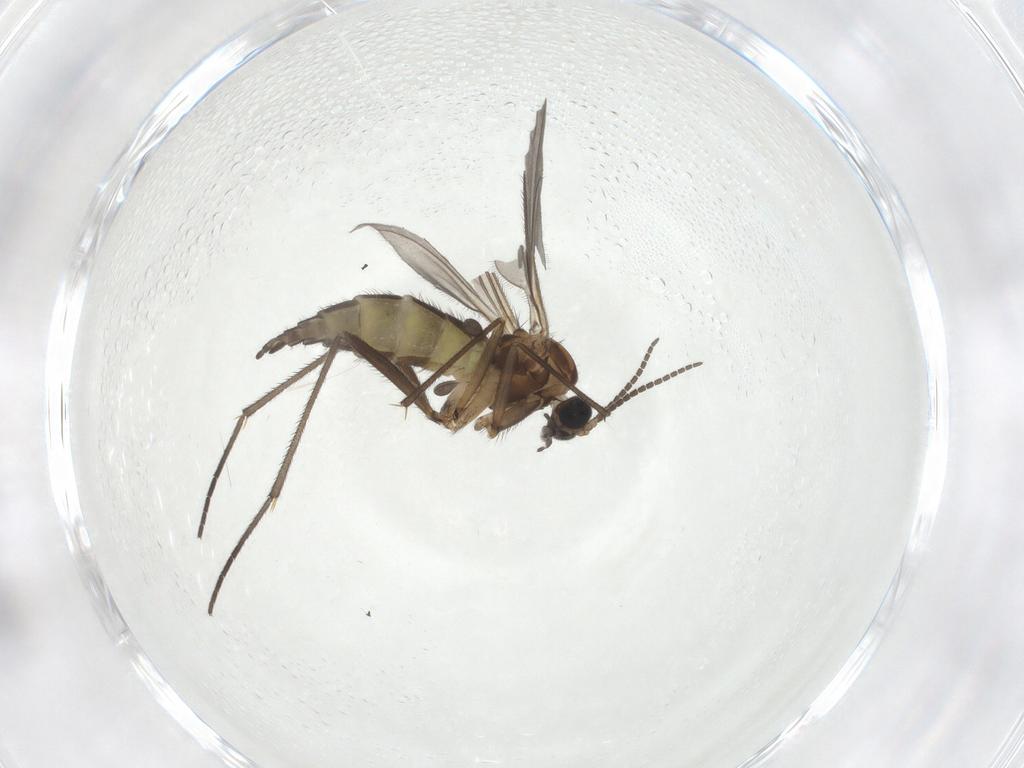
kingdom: Animalia
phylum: Arthropoda
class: Insecta
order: Diptera
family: Sciaridae
